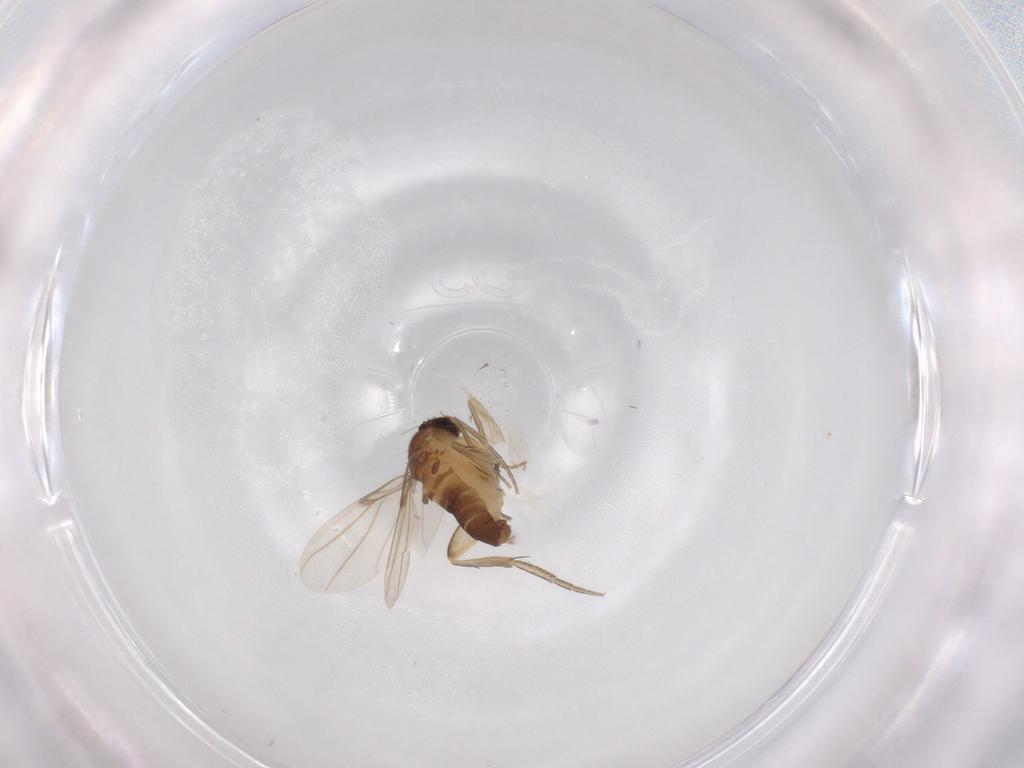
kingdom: Animalia
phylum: Arthropoda
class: Insecta
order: Diptera
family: Phoridae
